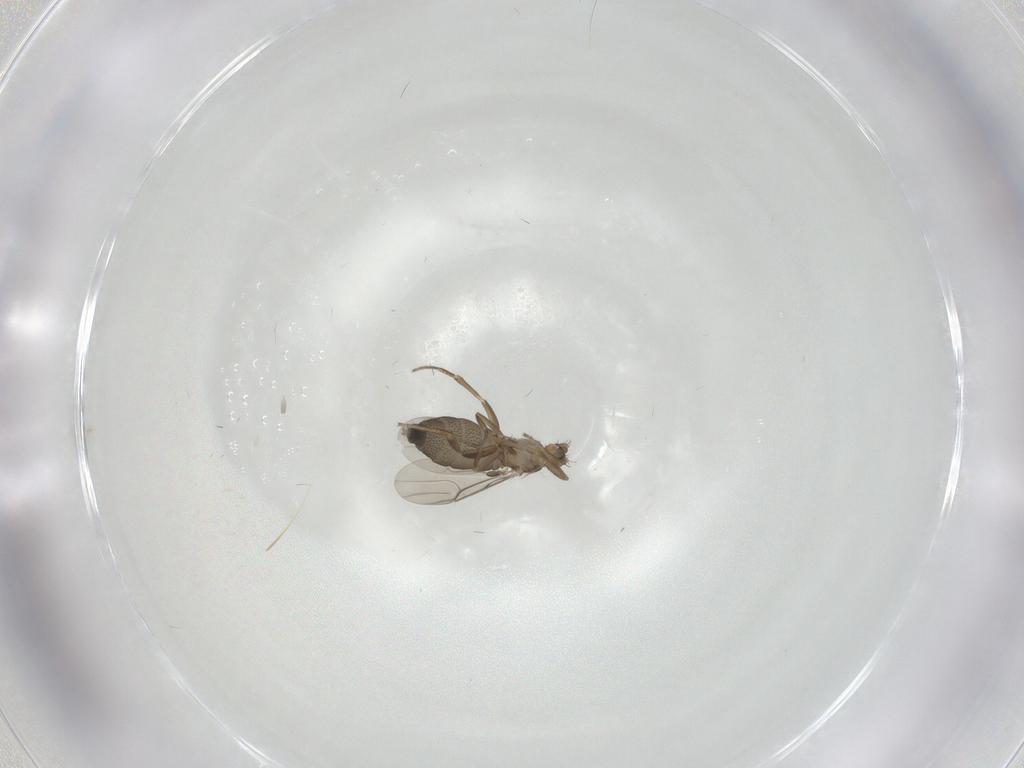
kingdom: Animalia
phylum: Arthropoda
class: Insecta
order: Diptera
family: Phoridae
